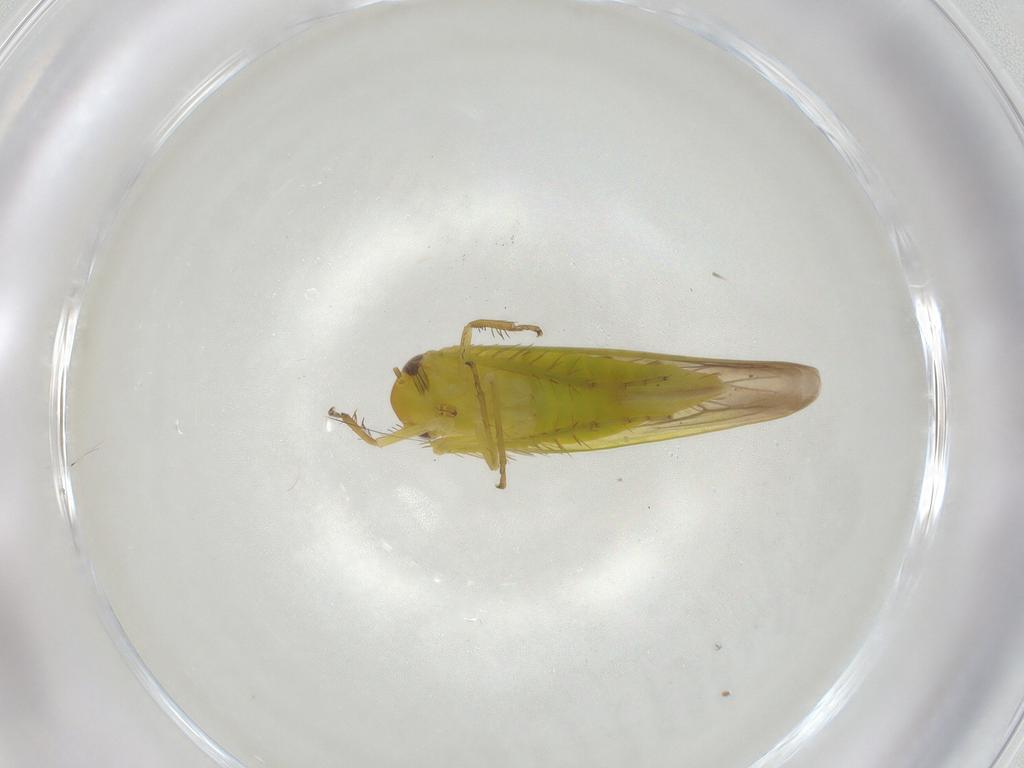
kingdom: Animalia
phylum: Arthropoda
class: Insecta
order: Hemiptera
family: Cicadellidae
